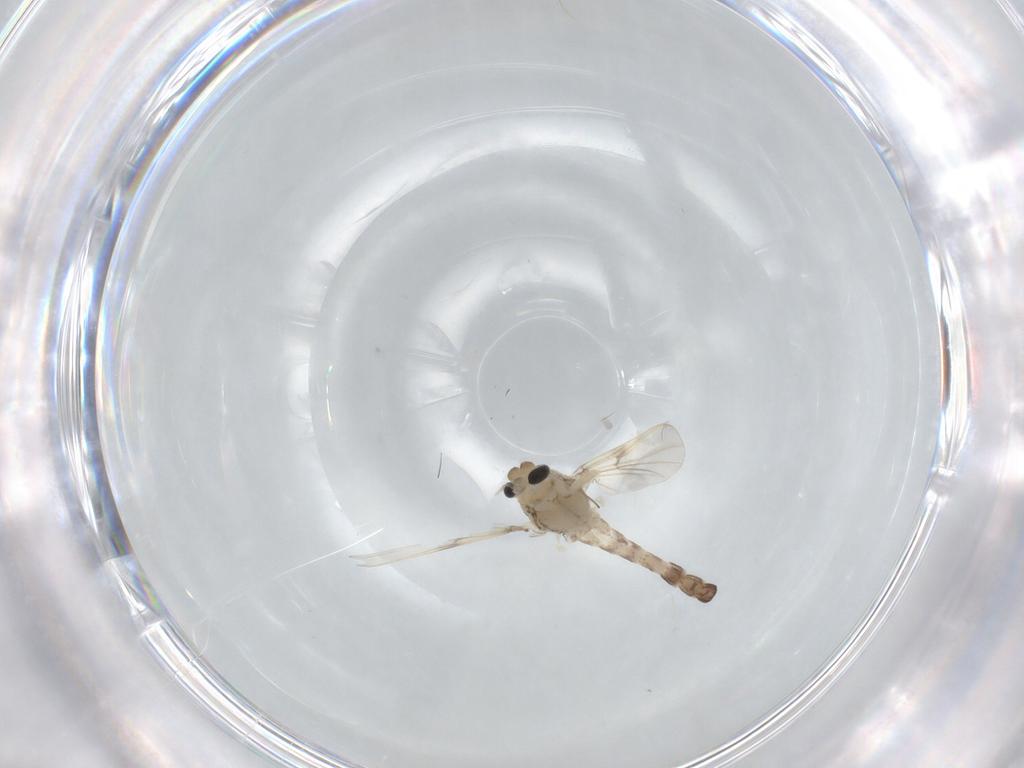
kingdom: Animalia
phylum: Arthropoda
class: Insecta
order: Diptera
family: Chironomidae
